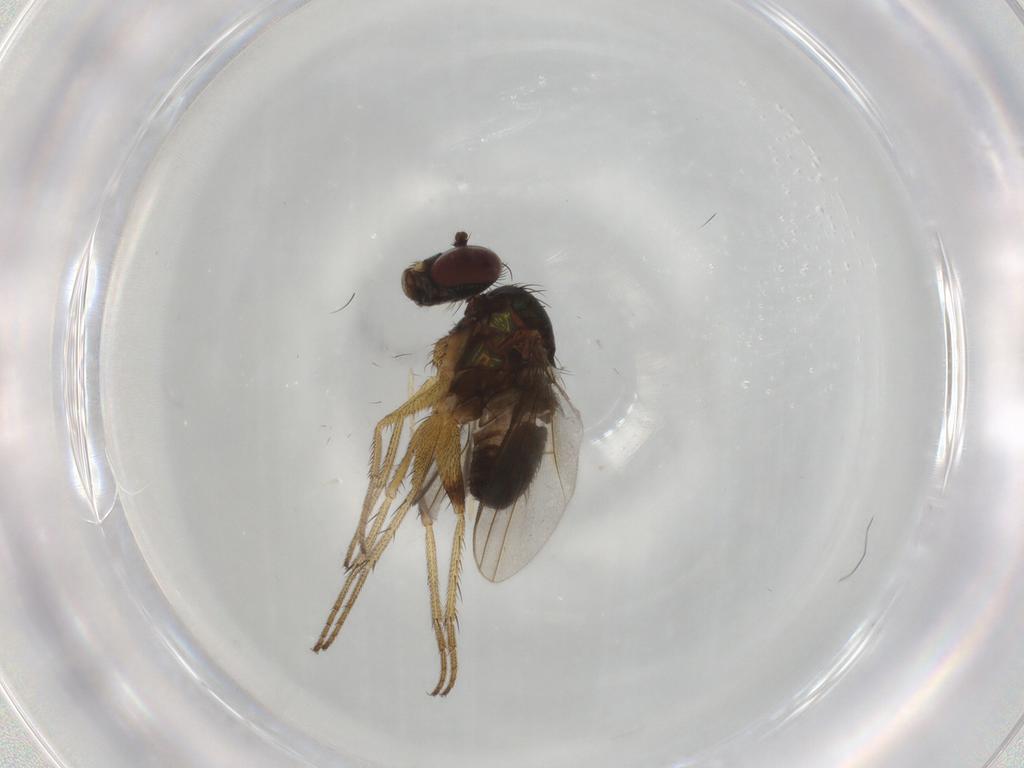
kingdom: Animalia
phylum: Arthropoda
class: Insecta
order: Diptera
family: Dolichopodidae
